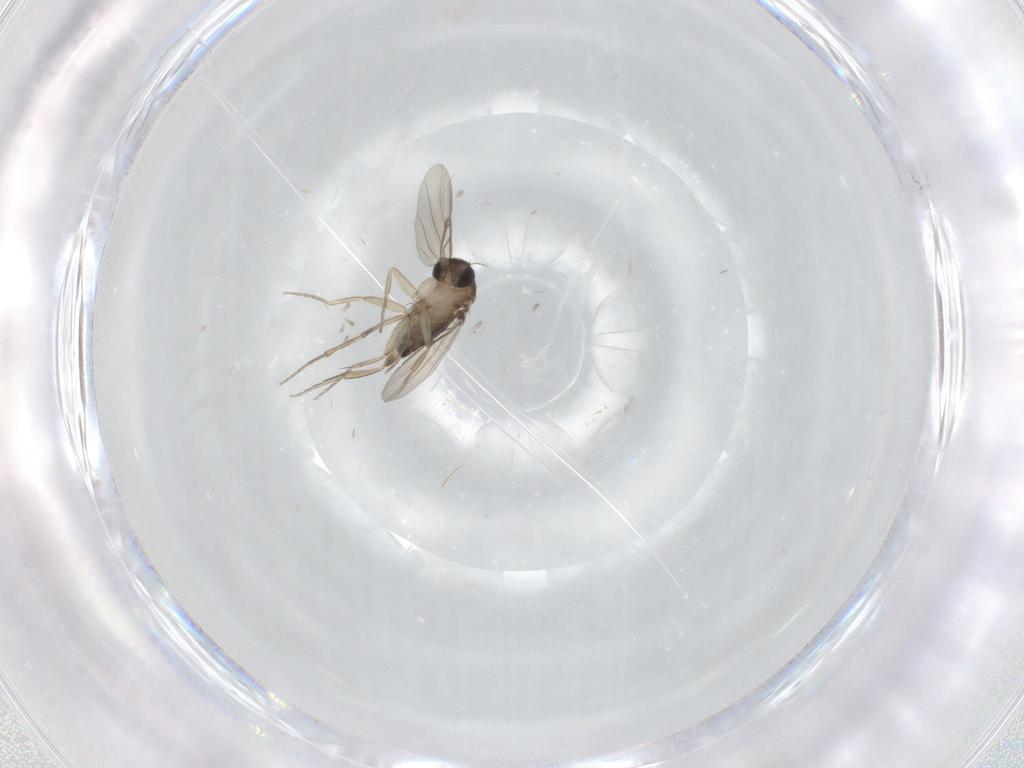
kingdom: Animalia
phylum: Arthropoda
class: Insecta
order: Diptera
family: Phoridae
